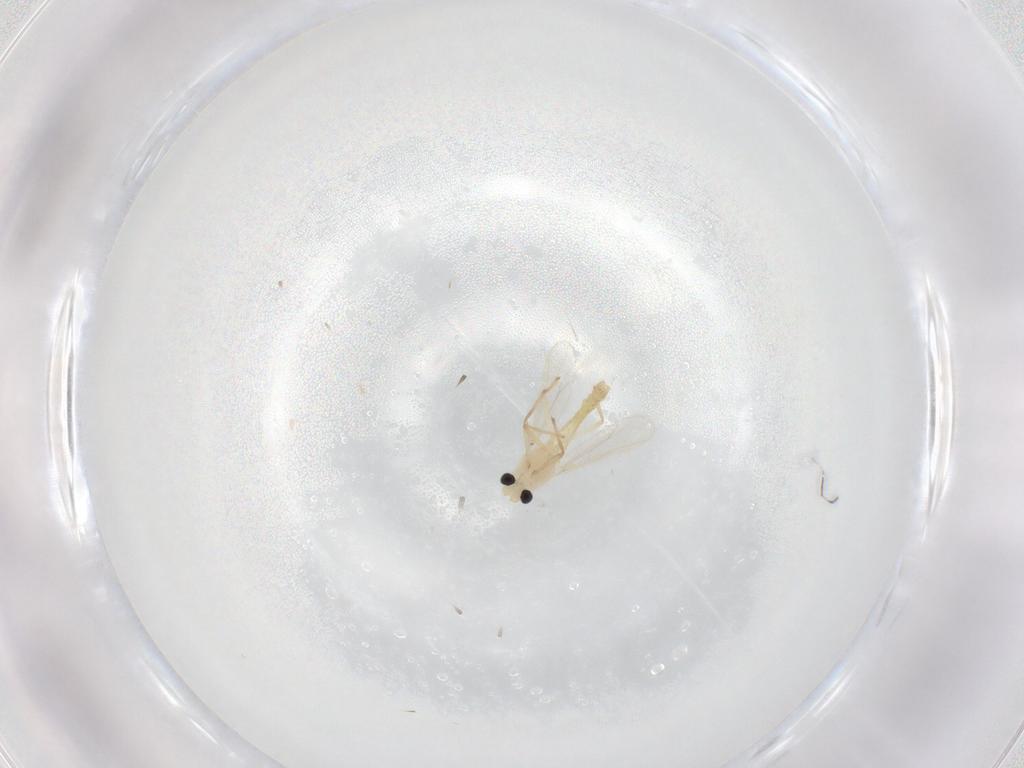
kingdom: Animalia
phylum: Arthropoda
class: Insecta
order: Diptera
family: Chironomidae
